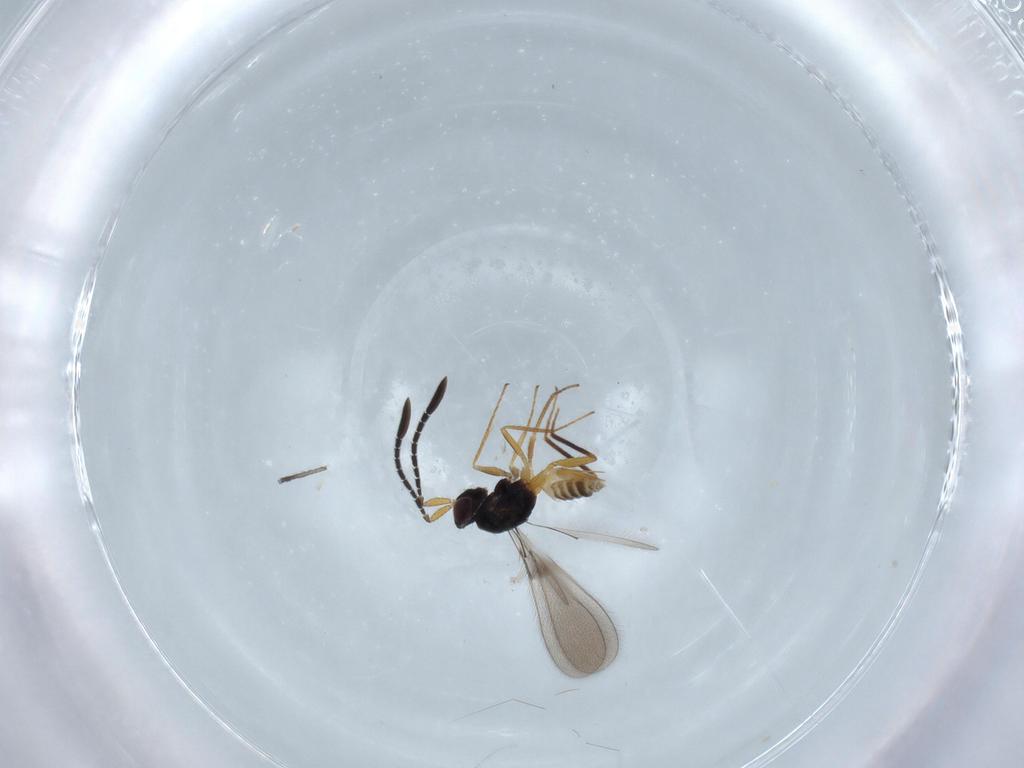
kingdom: Animalia
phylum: Arthropoda
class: Insecta
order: Hymenoptera
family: Mymaridae
